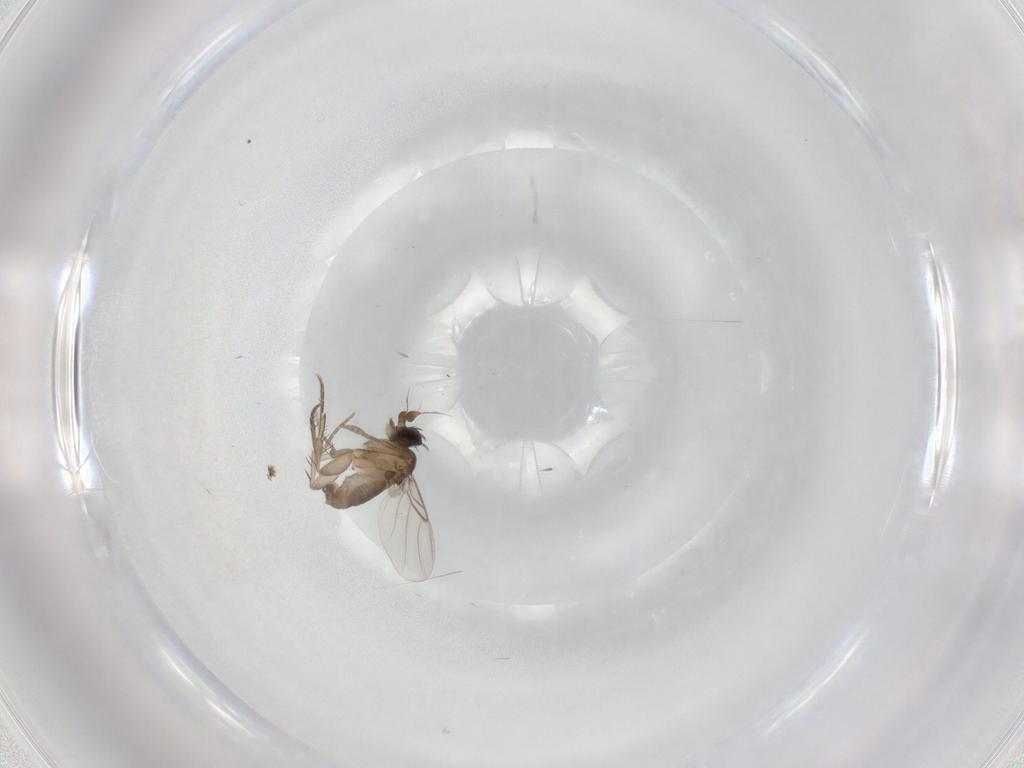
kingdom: Animalia
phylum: Arthropoda
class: Insecta
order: Diptera
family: Phoridae
